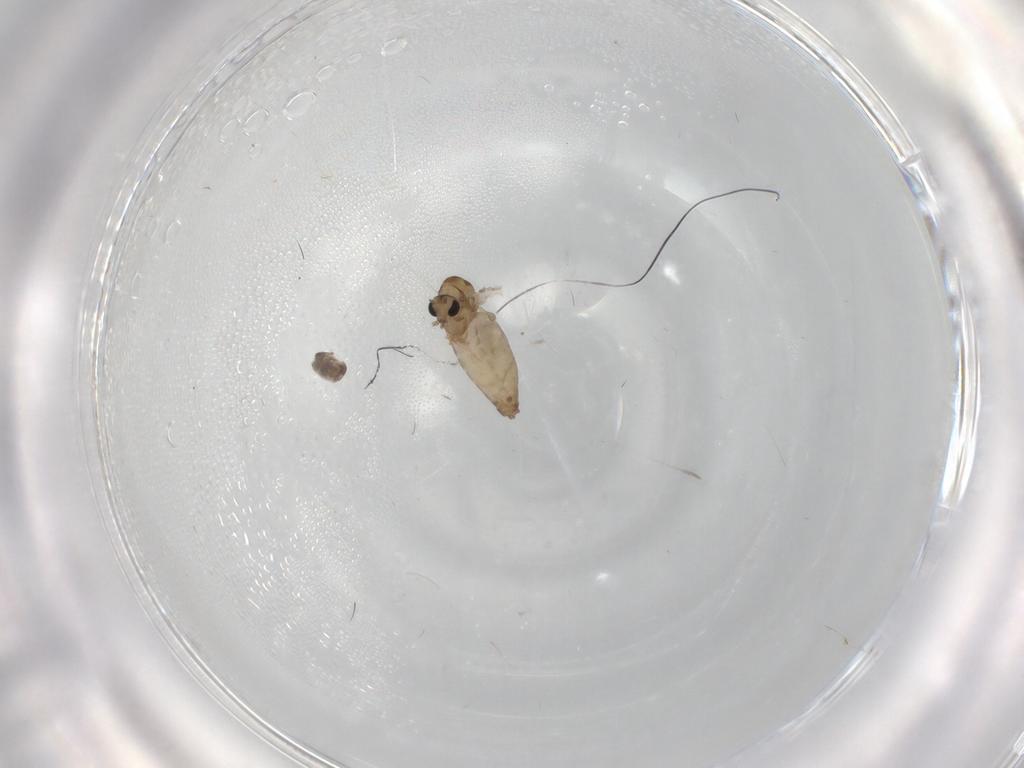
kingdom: Animalia
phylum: Arthropoda
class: Insecta
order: Diptera
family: Chironomidae
